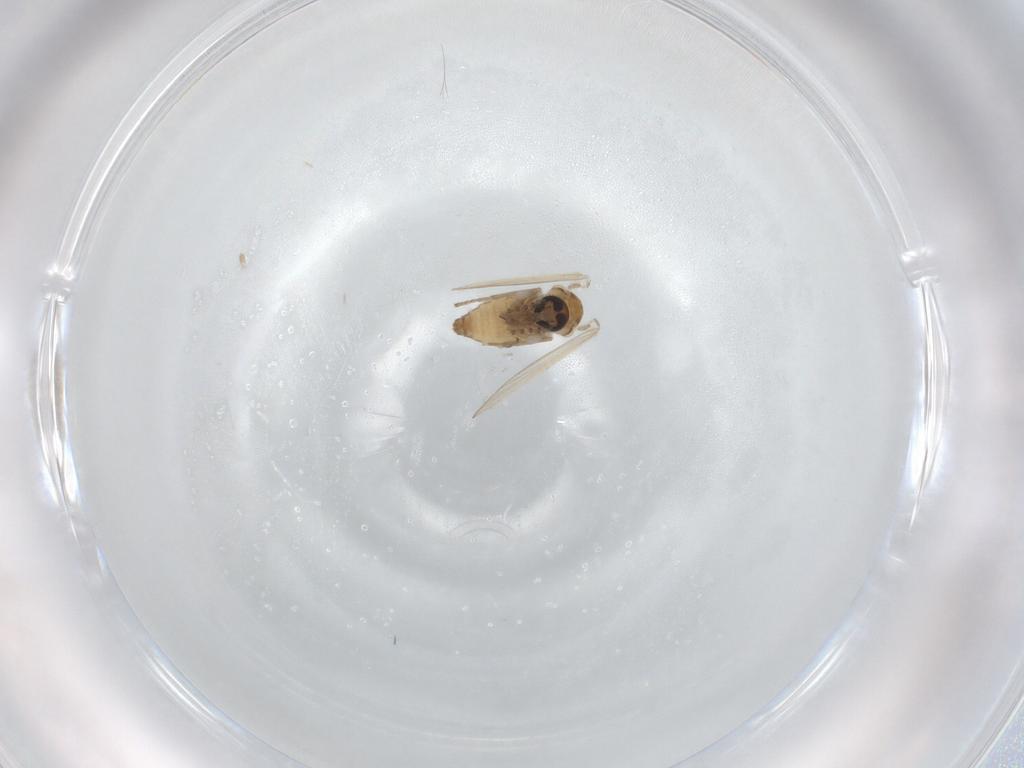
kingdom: Animalia
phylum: Arthropoda
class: Insecta
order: Diptera
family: Psychodidae
